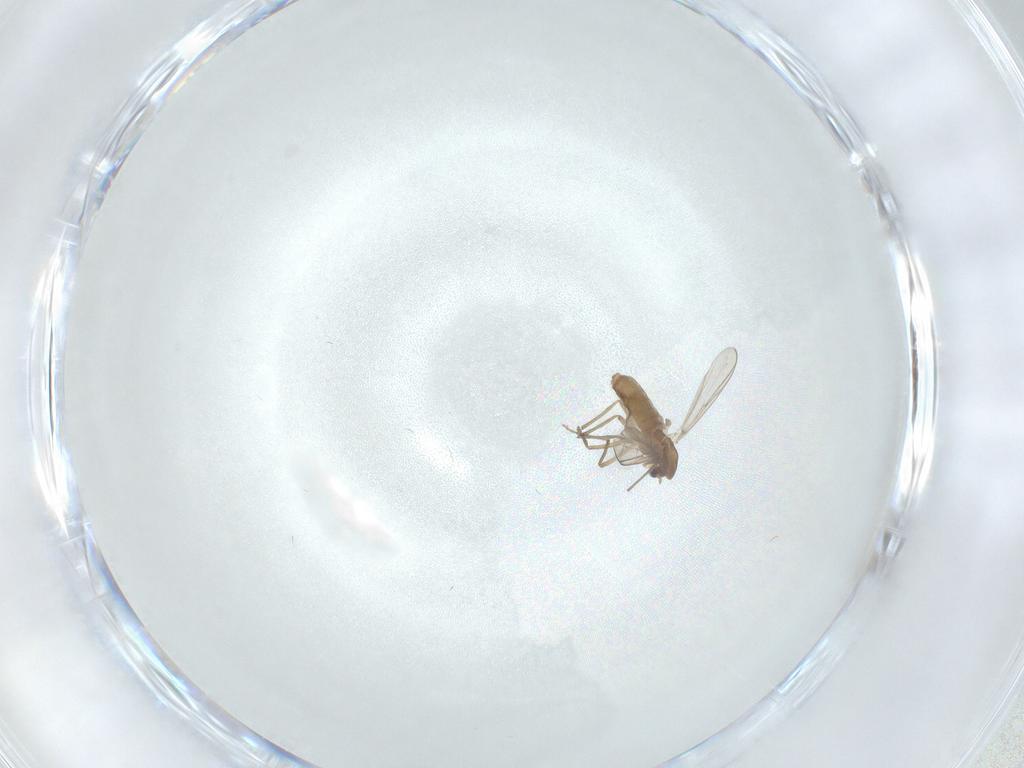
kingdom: Animalia
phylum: Arthropoda
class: Insecta
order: Diptera
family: Chironomidae
